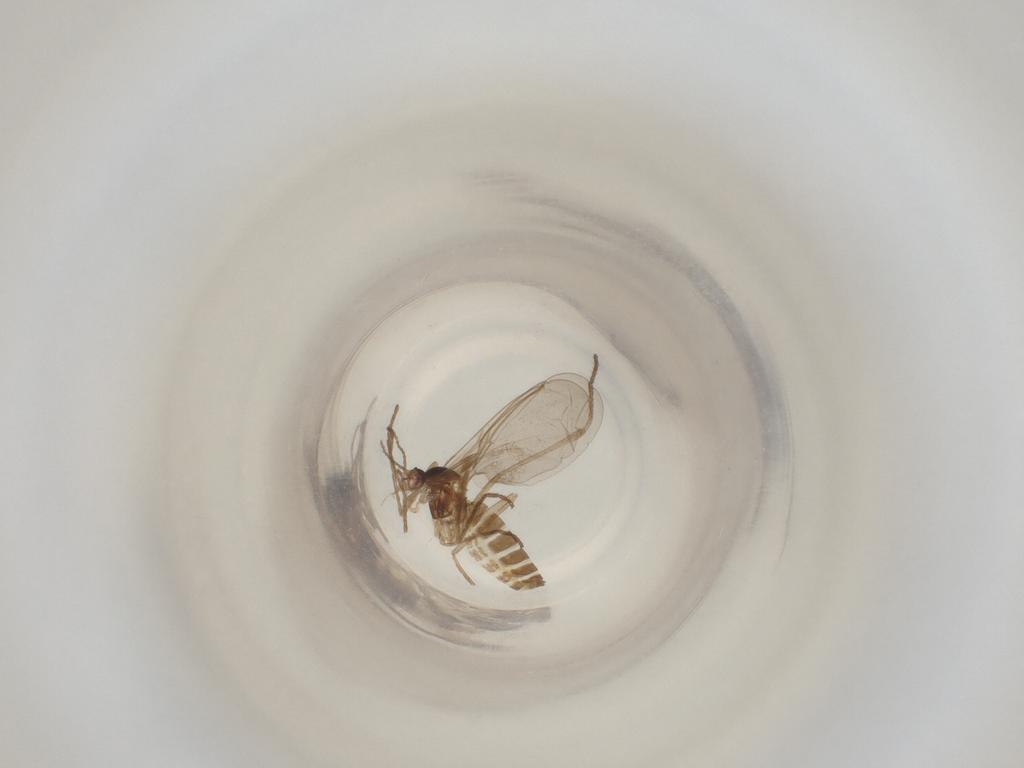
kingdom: Animalia
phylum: Arthropoda
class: Insecta
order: Diptera
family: Cecidomyiidae
